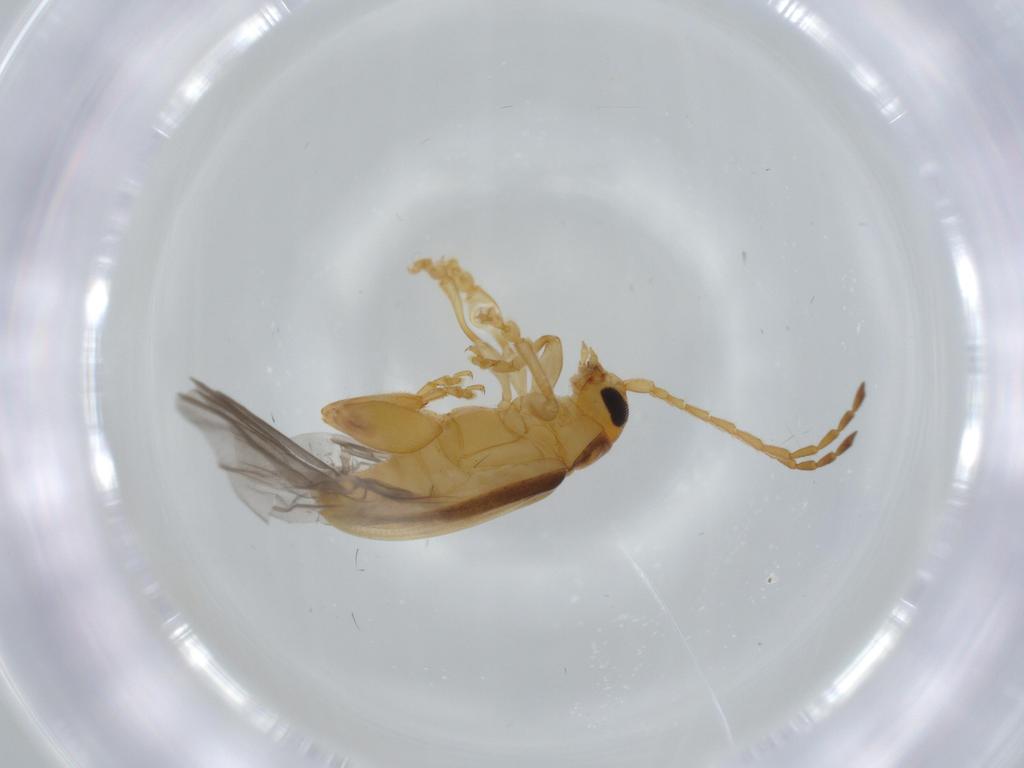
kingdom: Animalia
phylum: Arthropoda
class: Insecta
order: Coleoptera
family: Chrysomelidae
